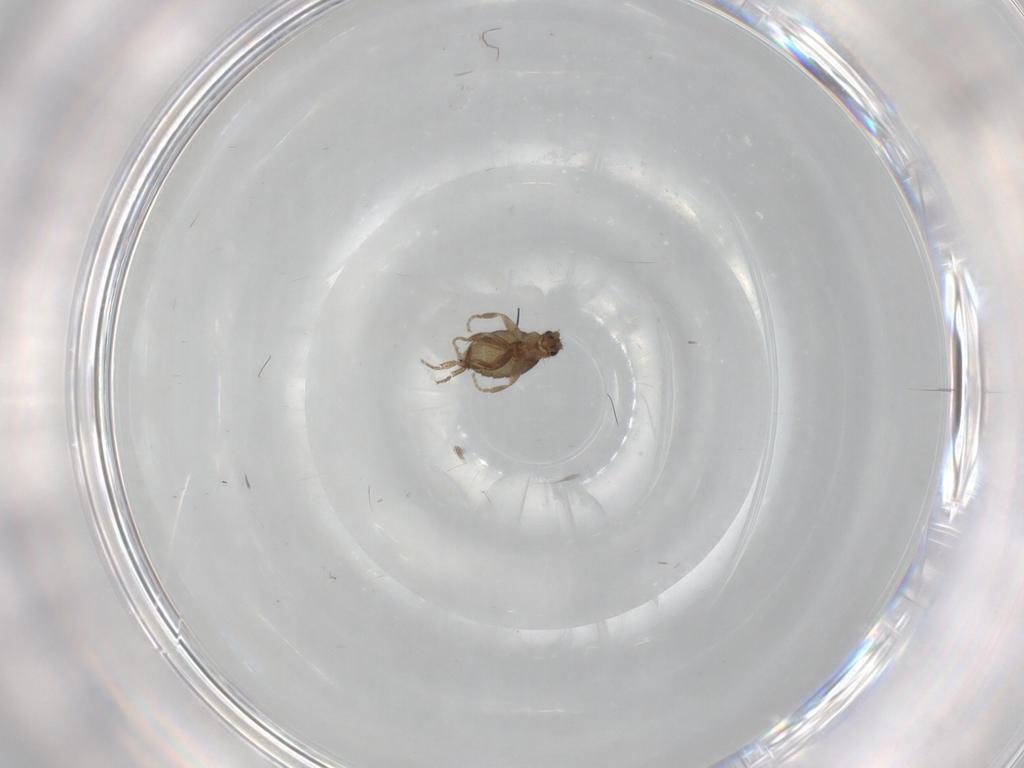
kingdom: Animalia
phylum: Arthropoda
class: Insecta
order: Diptera
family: Phoridae
